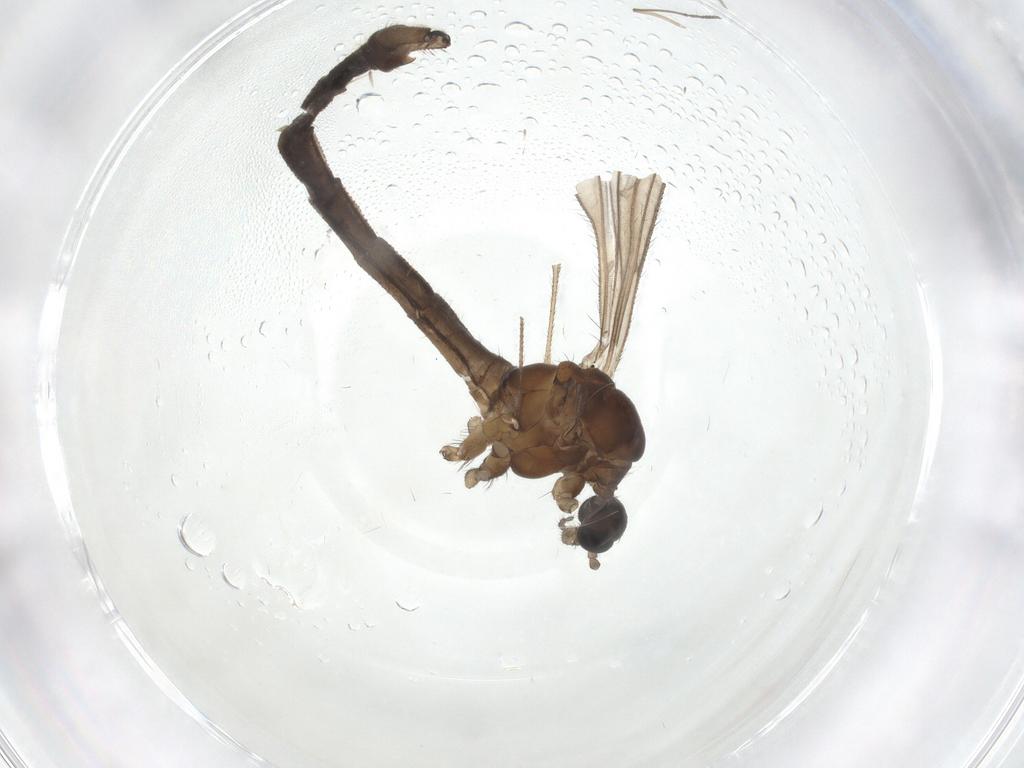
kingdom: Animalia
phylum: Arthropoda
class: Insecta
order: Diptera
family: Limoniidae
